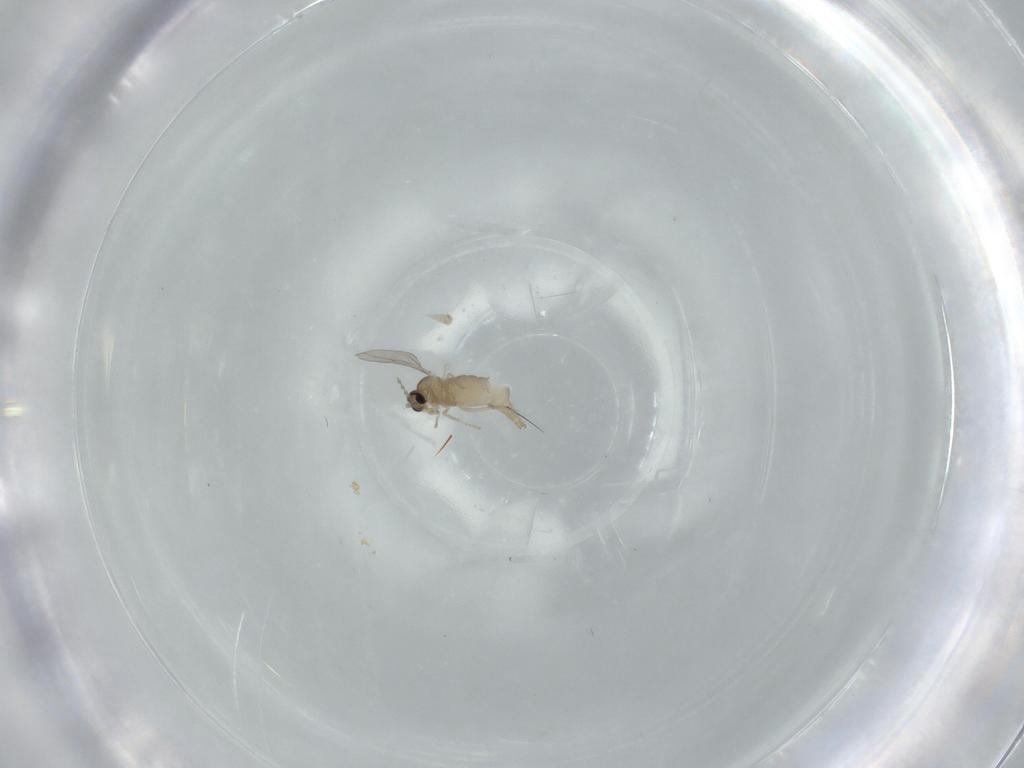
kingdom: Animalia
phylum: Arthropoda
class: Insecta
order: Diptera
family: Cecidomyiidae
